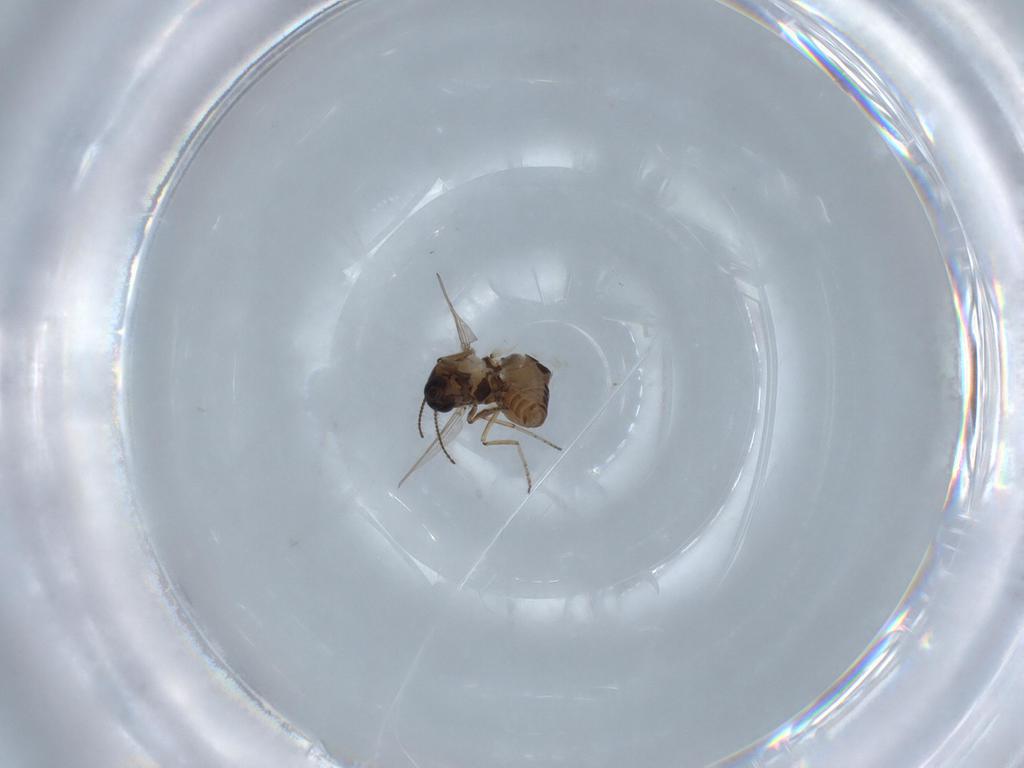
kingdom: Animalia
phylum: Arthropoda
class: Insecta
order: Diptera
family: Ceratopogonidae
